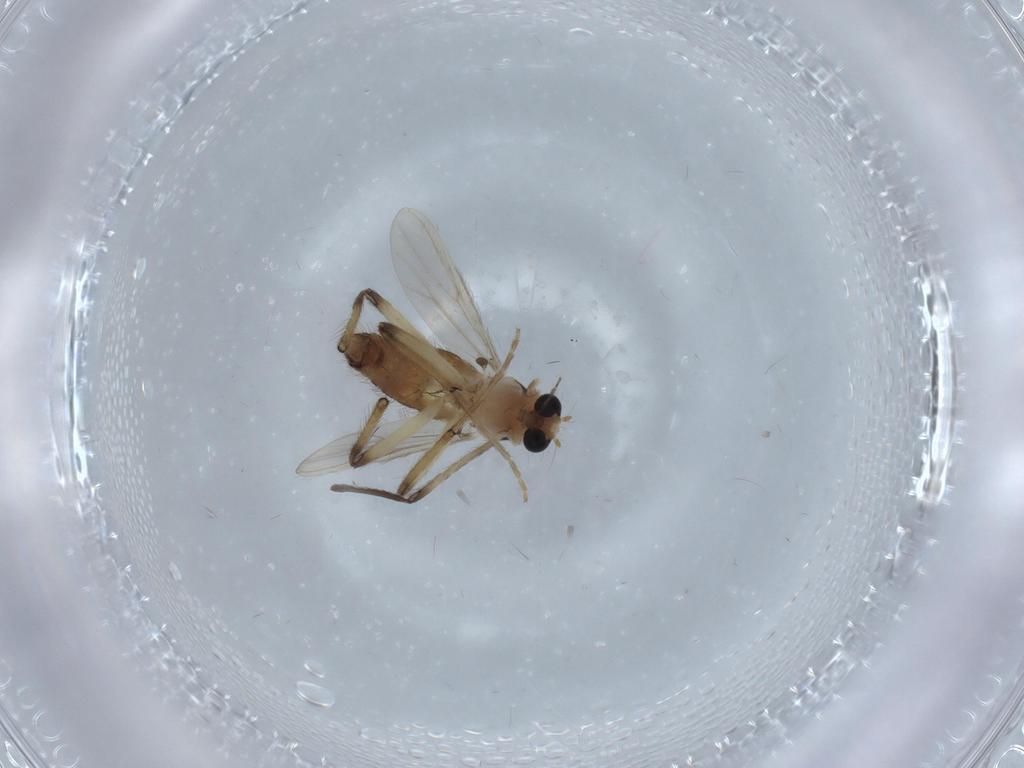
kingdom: Animalia
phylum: Arthropoda
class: Insecta
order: Diptera
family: Chironomidae
